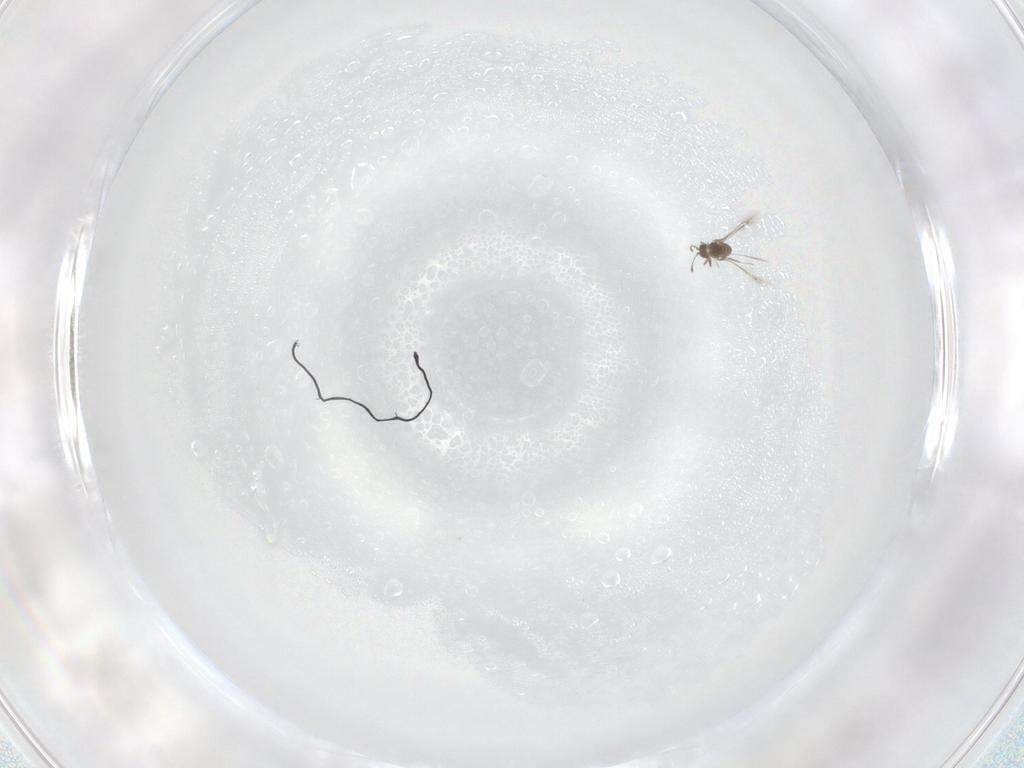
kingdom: Animalia
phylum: Arthropoda
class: Insecta
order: Hymenoptera
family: Mymaridae
